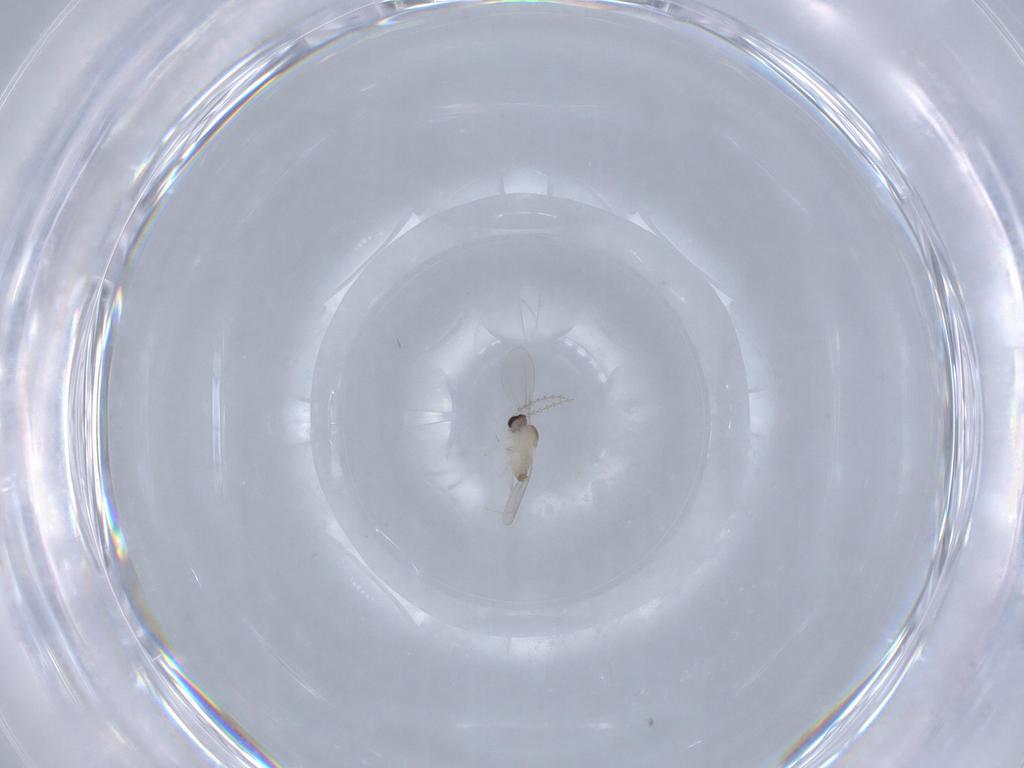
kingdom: Animalia
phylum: Arthropoda
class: Insecta
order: Diptera
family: Cecidomyiidae
